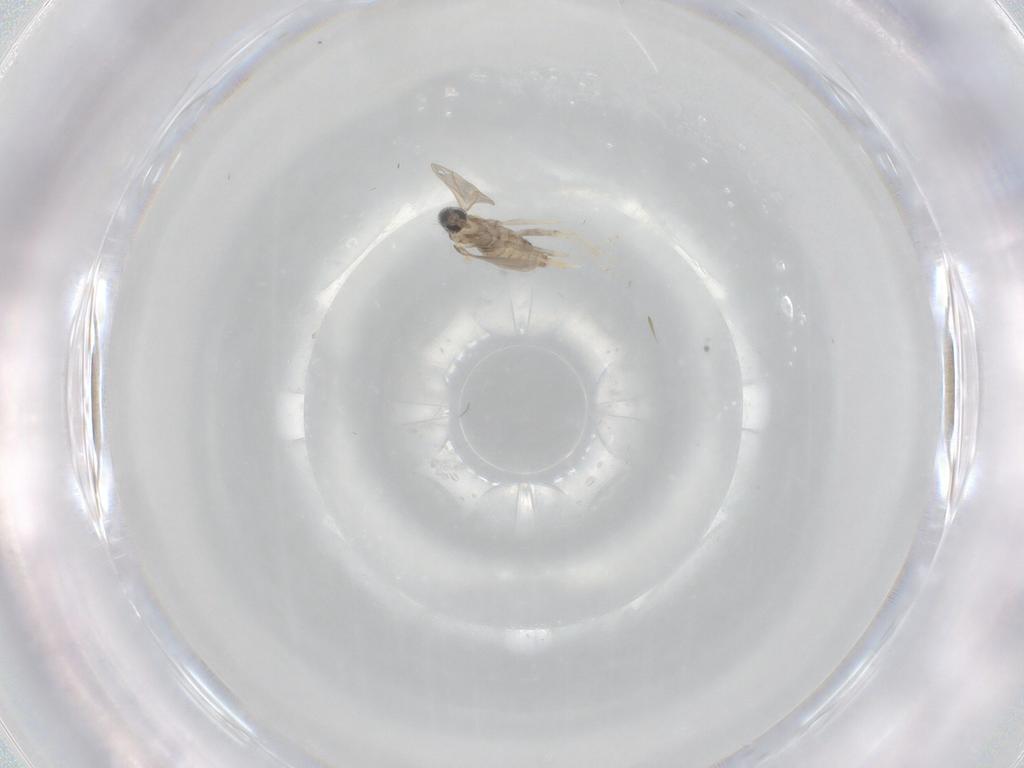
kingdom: Animalia
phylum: Arthropoda
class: Insecta
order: Diptera
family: Cecidomyiidae
